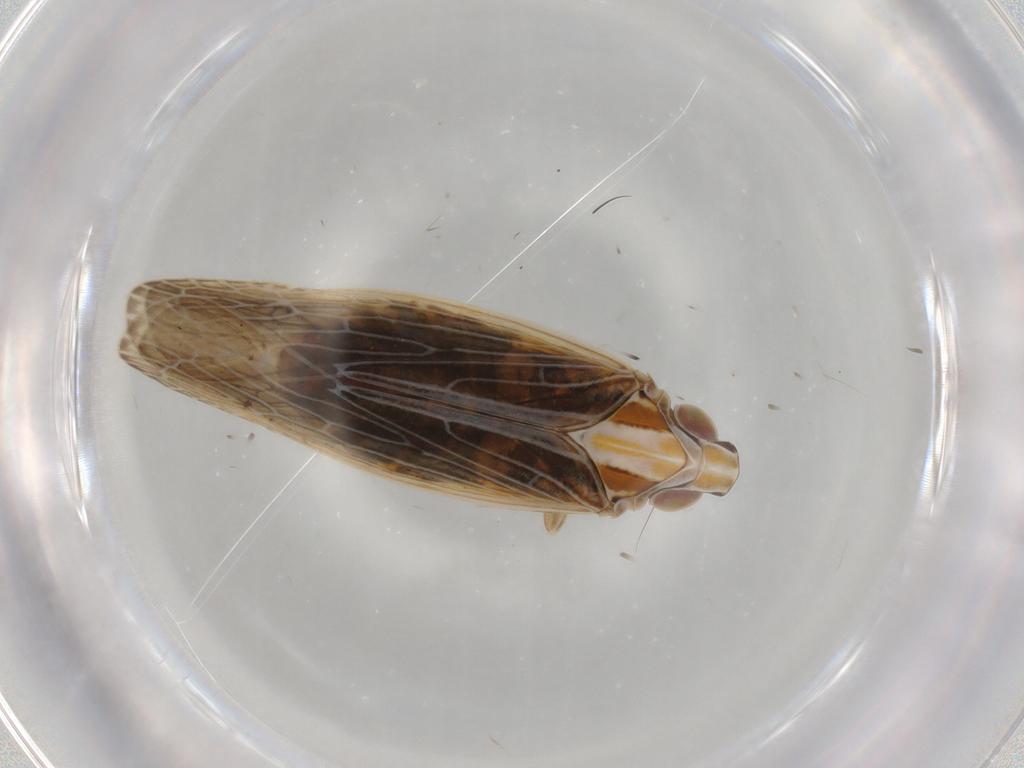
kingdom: Animalia
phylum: Arthropoda
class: Insecta
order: Hemiptera
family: Achilidae
